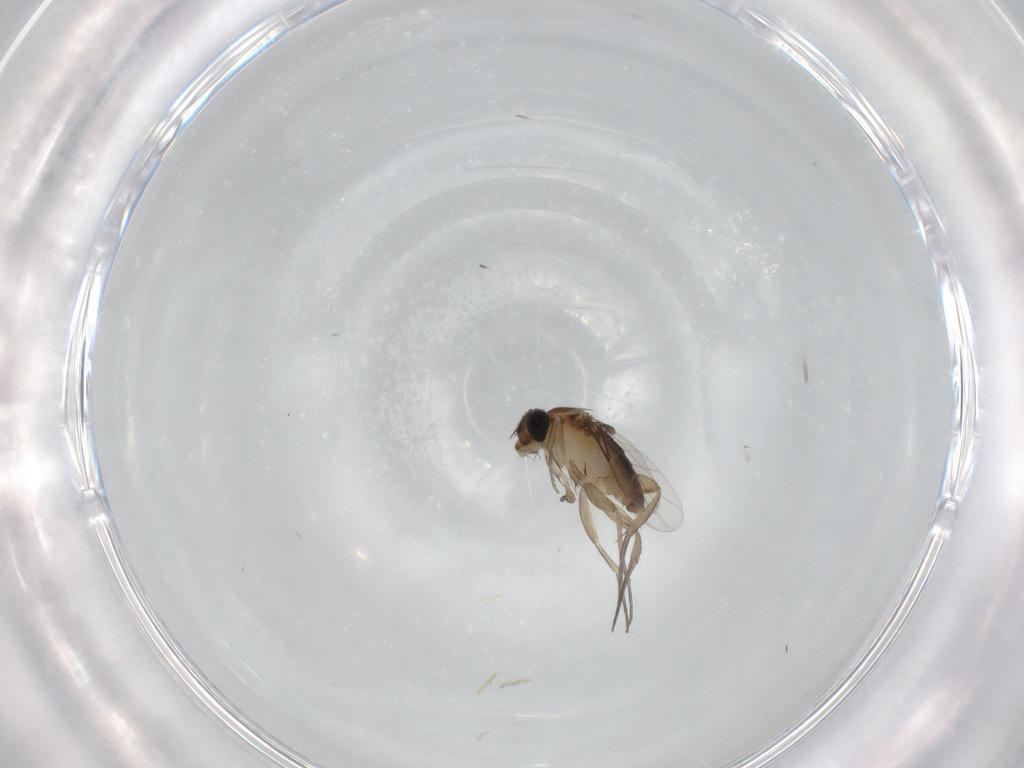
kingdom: Animalia
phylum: Arthropoda
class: Insecta
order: Diptera
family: Phoridae
